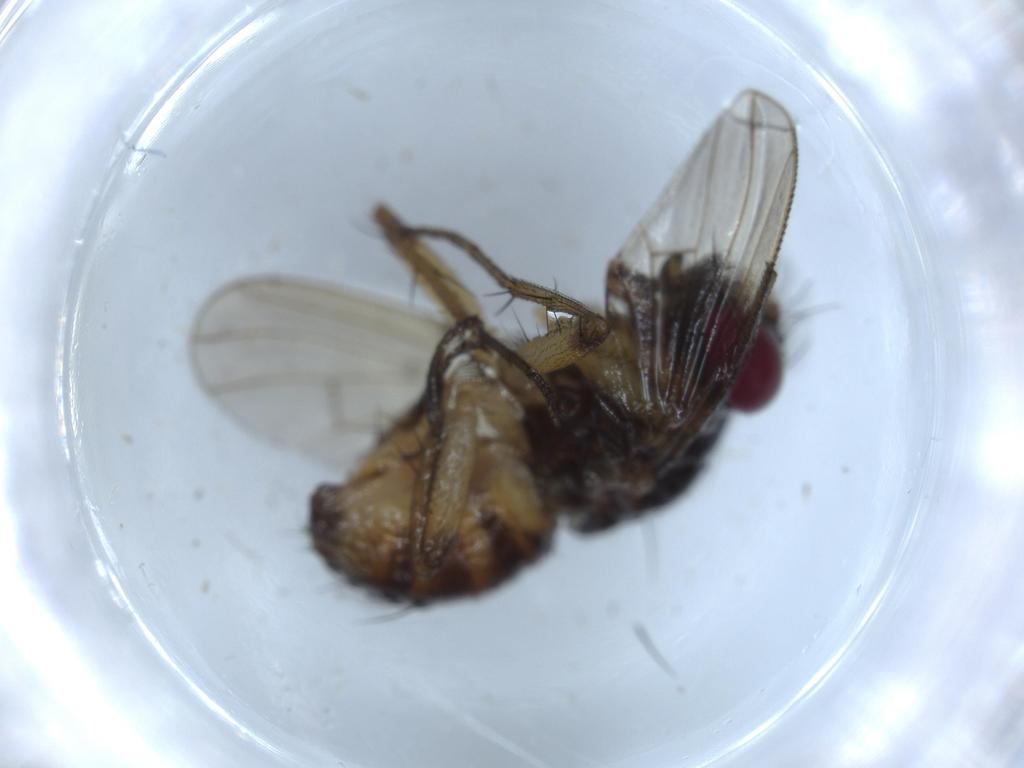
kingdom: Animalia
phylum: Arthropoda
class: Insecta
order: Diptera
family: Muscidae
